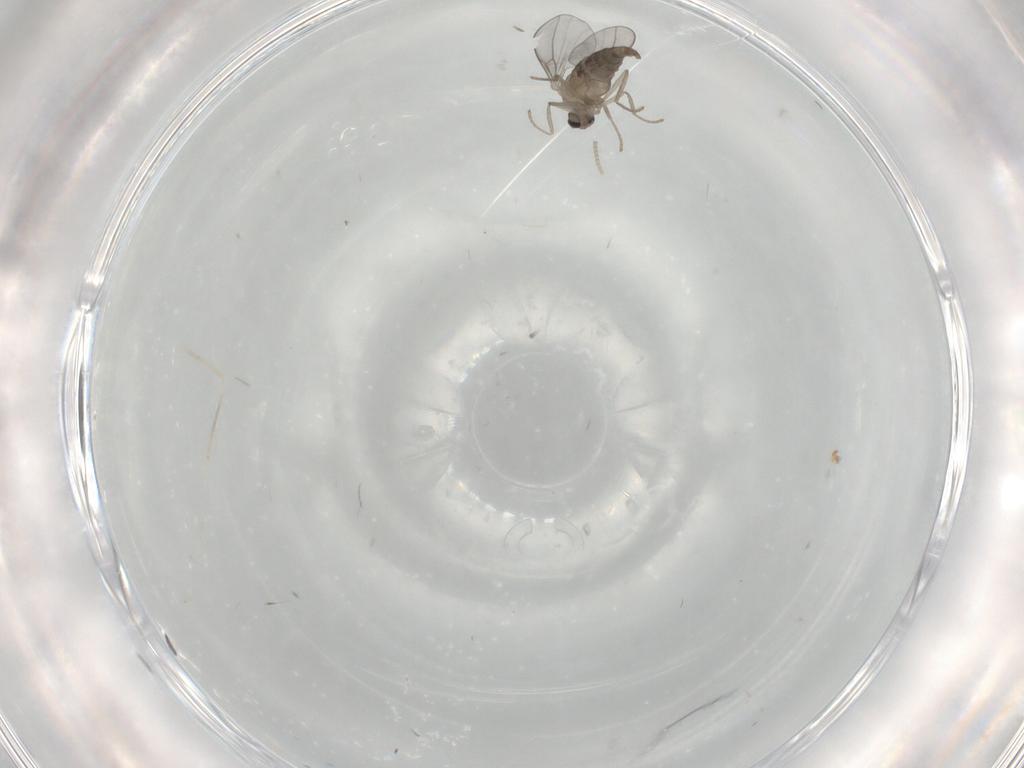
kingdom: Animalia
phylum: Arthropoda
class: Insecta
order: Diptera
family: Cecidomyiidae
